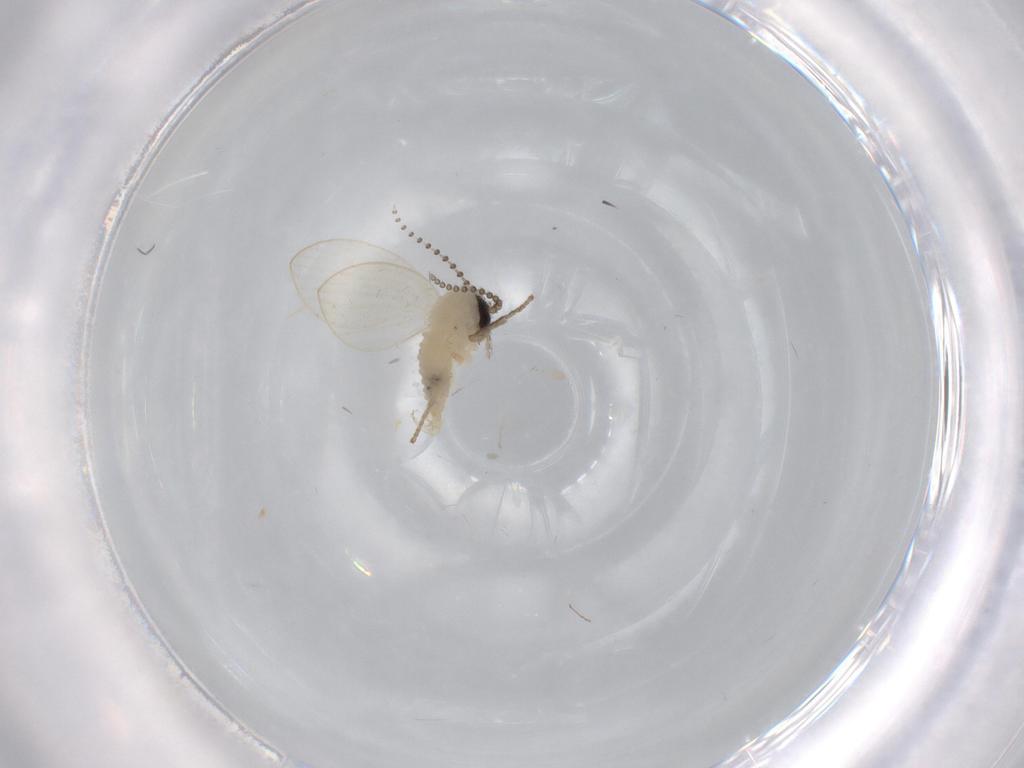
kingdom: Animalia
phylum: Arthropoda
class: Insecta
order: Diptera
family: Psychodidae
